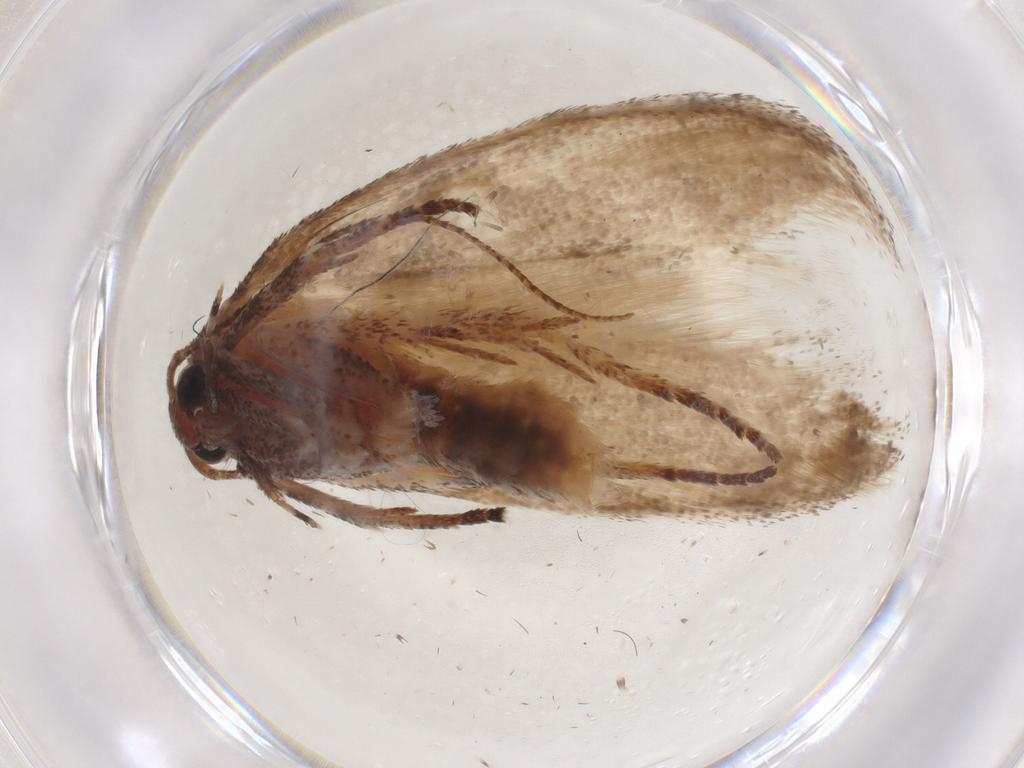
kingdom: Animalia
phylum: Arthropoda
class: Insecta
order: Lepidoptera
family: Cosmopterigidae
